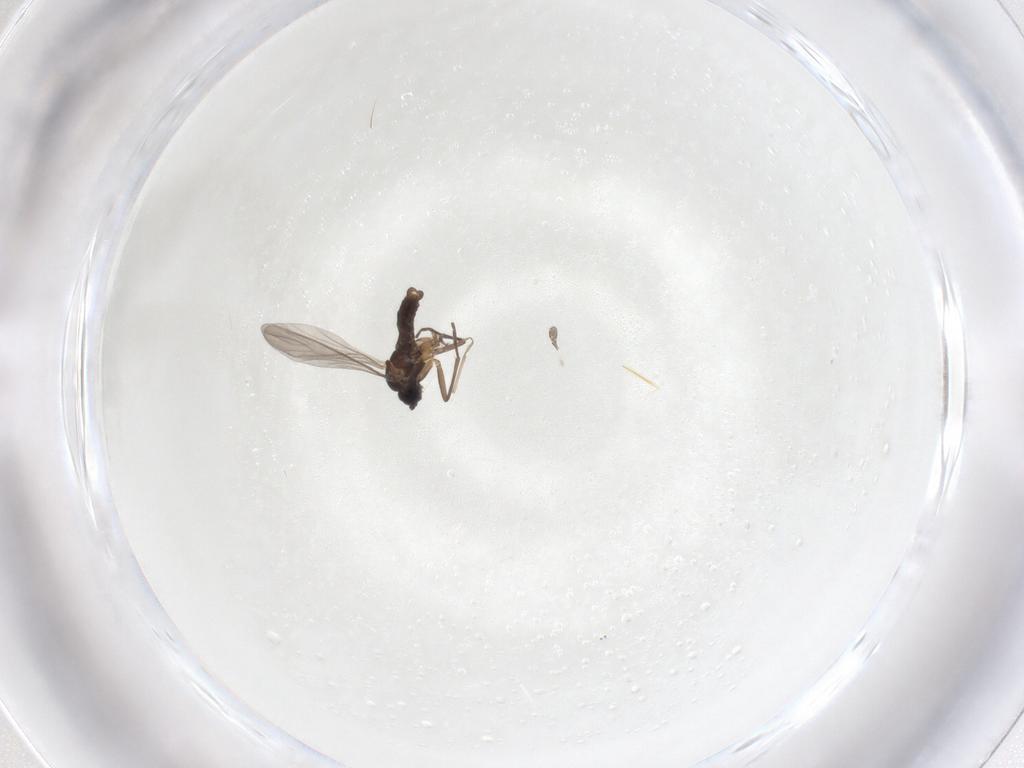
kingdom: Animalia
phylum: Arthropoda
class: Insecta
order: Diptera
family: Sciaridae
